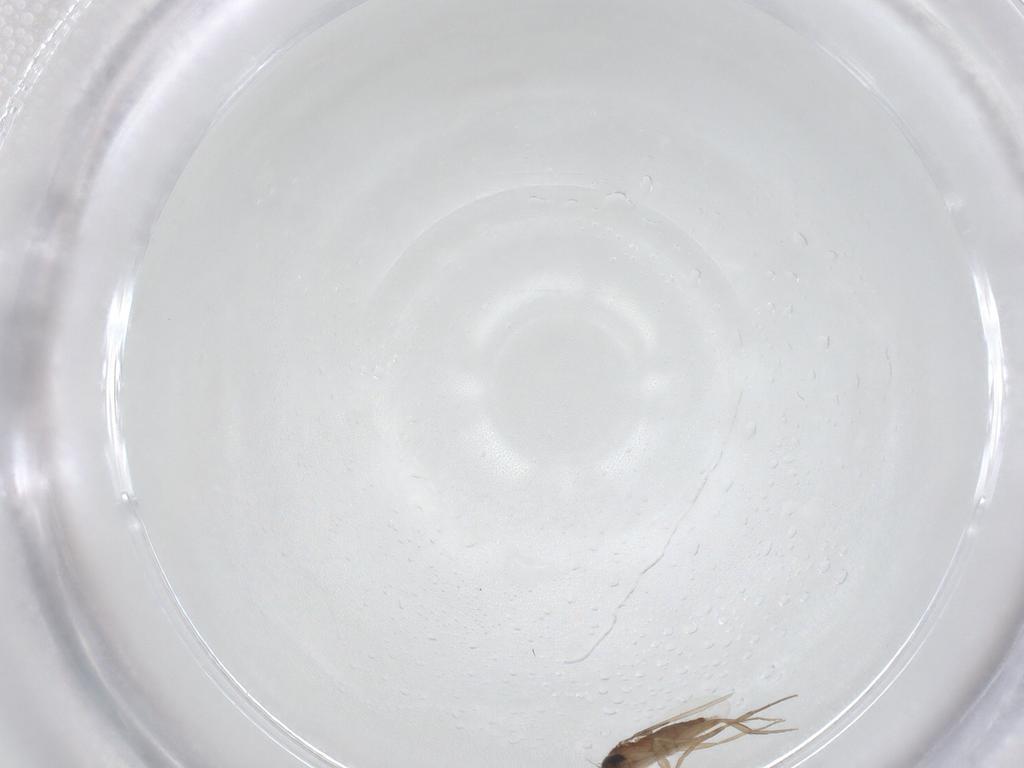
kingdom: Animalia
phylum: Arthropoda
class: Insecta
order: Diptera
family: Phoridae
